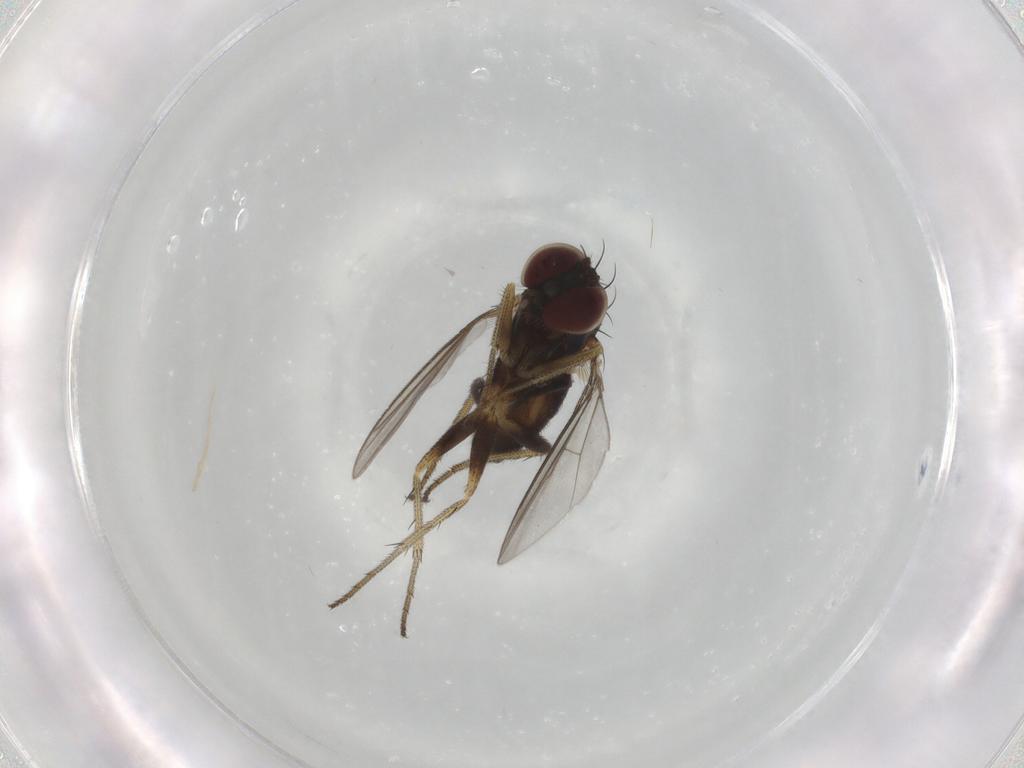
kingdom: Animalia
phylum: Arthropoda
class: Insecta
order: Diptera
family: Dolichopodidae
